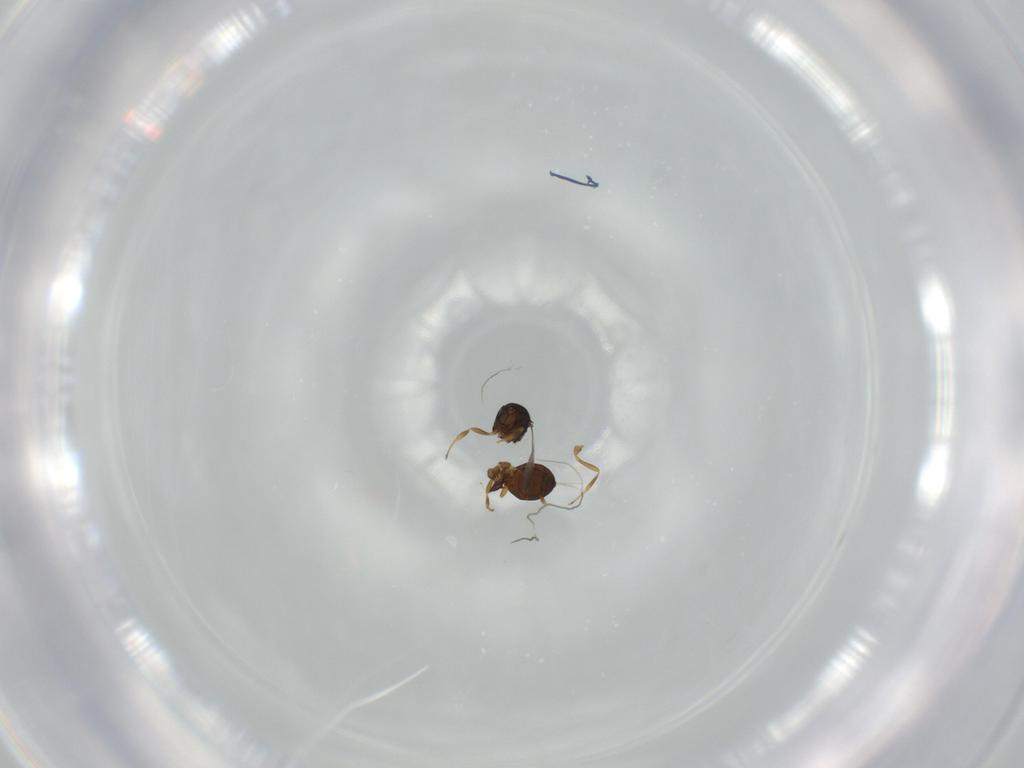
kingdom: Animalia
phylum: Arthropoda
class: Insecta
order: Hymenoptera
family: Scelionidae
